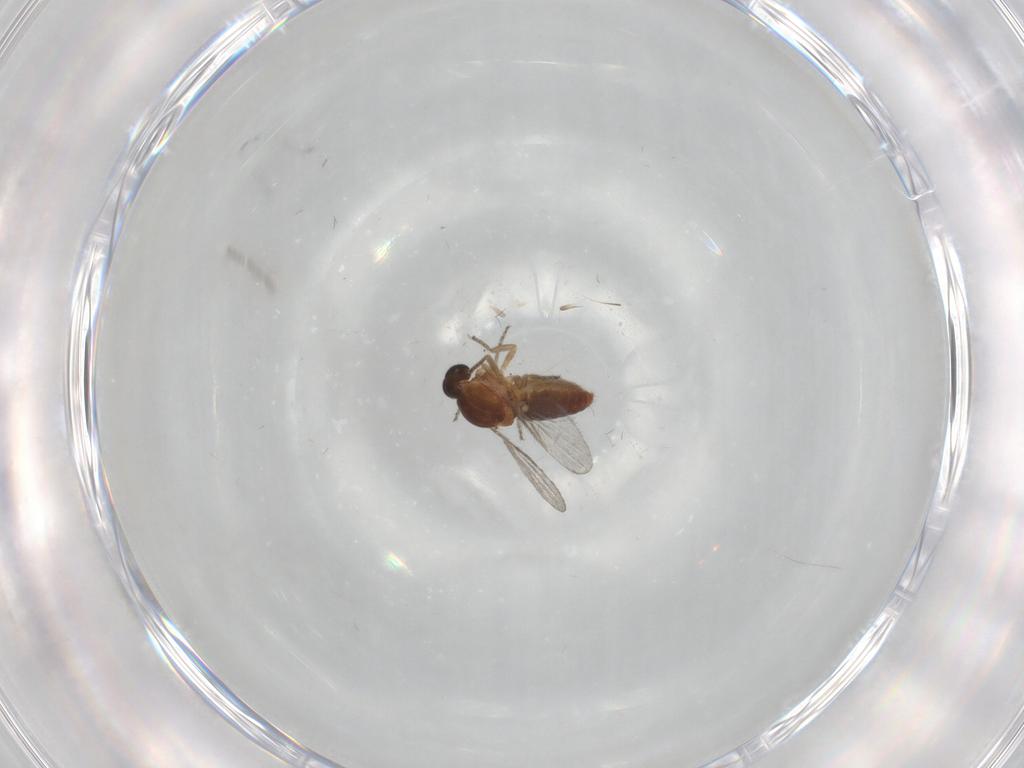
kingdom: Animalia
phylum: Arthropoda
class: Insecta
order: Diptera
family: Ceratopogonidae
